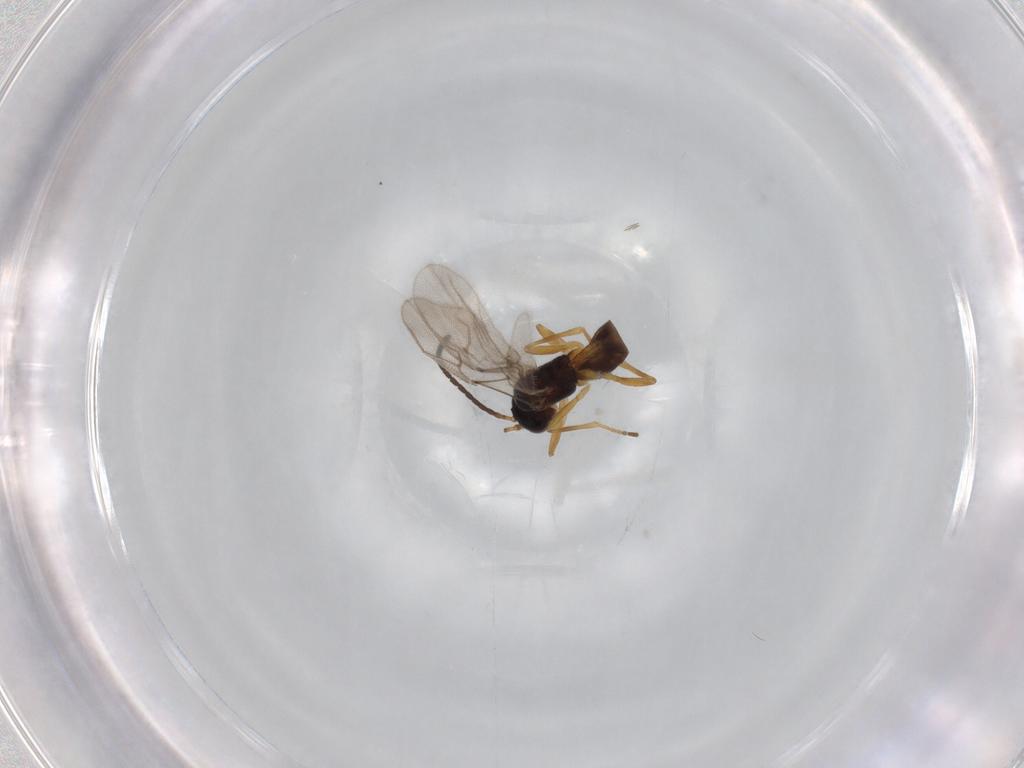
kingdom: Animalia
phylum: Arthropoda
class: Insecta
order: Hymenoptera
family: Braconidae
